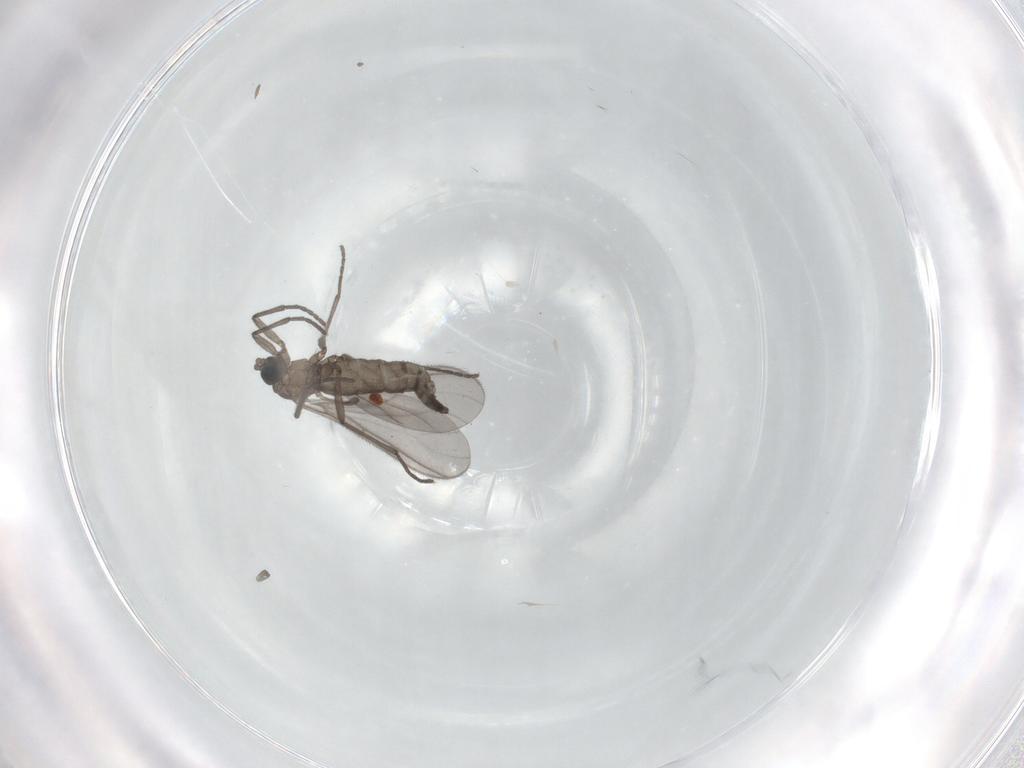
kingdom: Animalia
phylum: Arthropoda
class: Insecta
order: Diptera
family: Sciaridae
